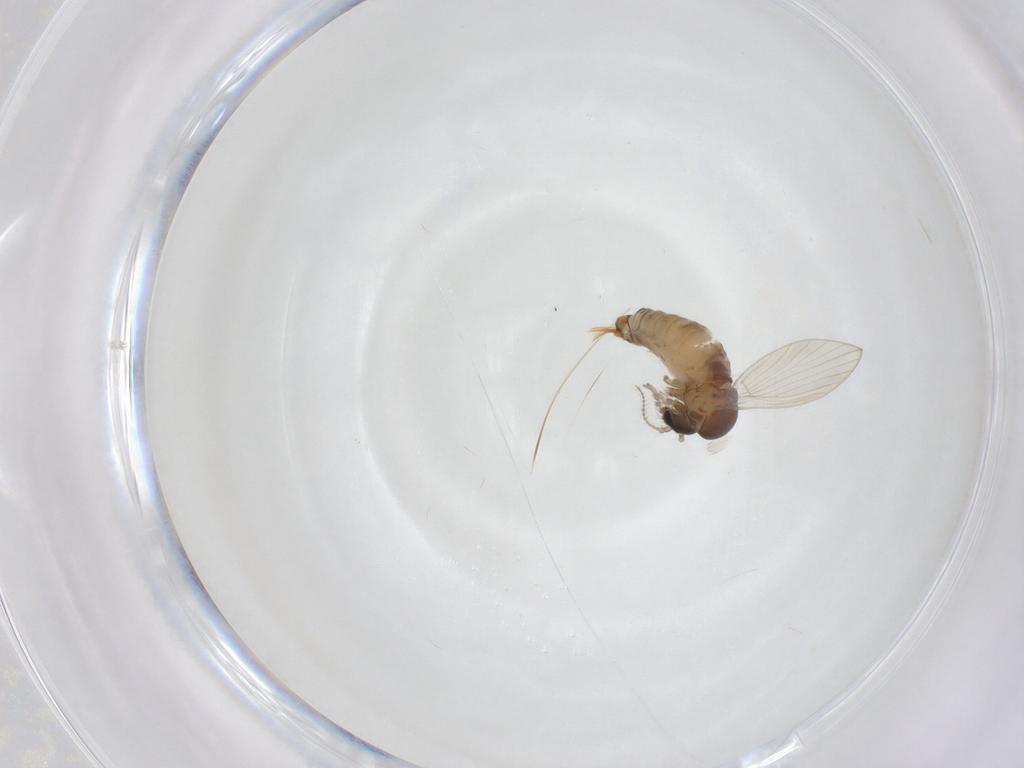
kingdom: Animalia
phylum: Arthropoda
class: Insecta
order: Diptera
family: Psychodidae
